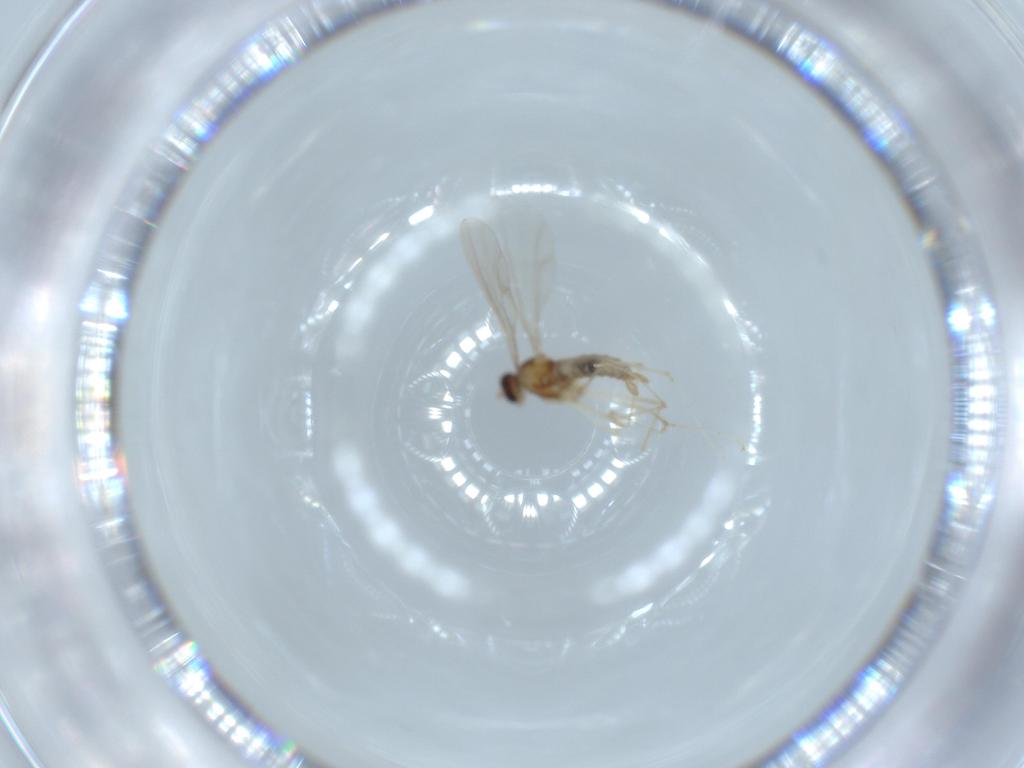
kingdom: Animalia
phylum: Arthropoda
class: Insecta
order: Diptera
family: Cecidomyiidae
